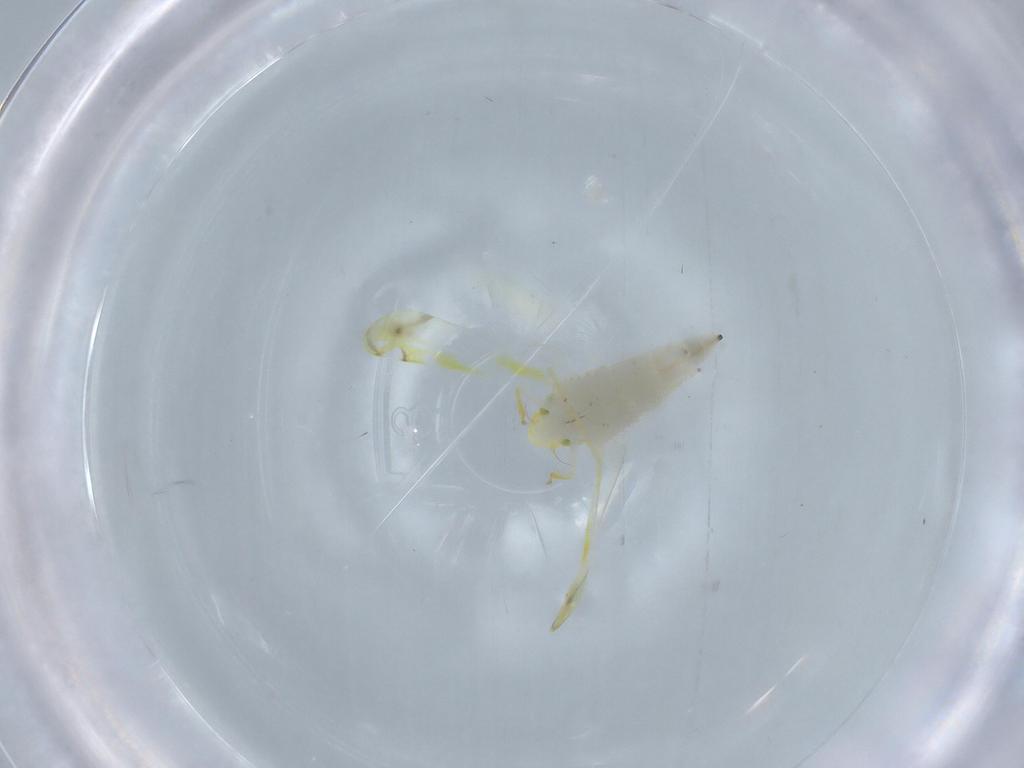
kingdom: Animalia
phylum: Arthropoda
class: Insecta
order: Hemiptera
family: Cicadellidae
